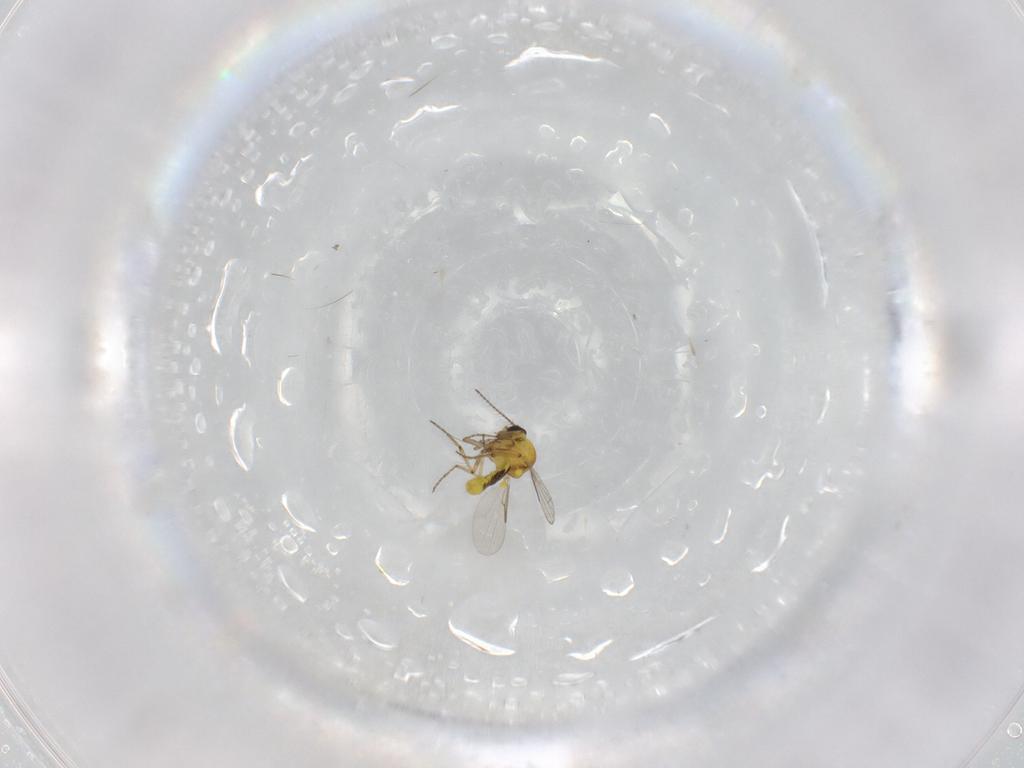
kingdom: Animalia
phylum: Arthropoda
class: Insecta
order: Diptera
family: Ceratopogonidae
